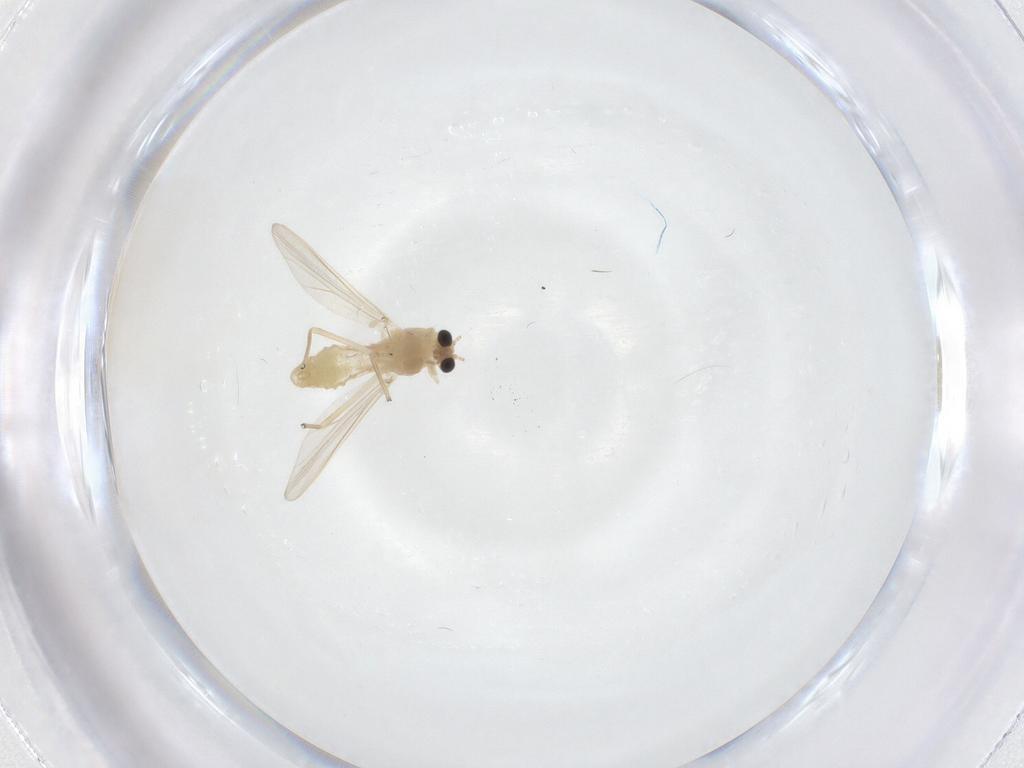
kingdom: Animalia
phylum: Arthropoda
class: Insecta
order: Diptera
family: Chironomidae
